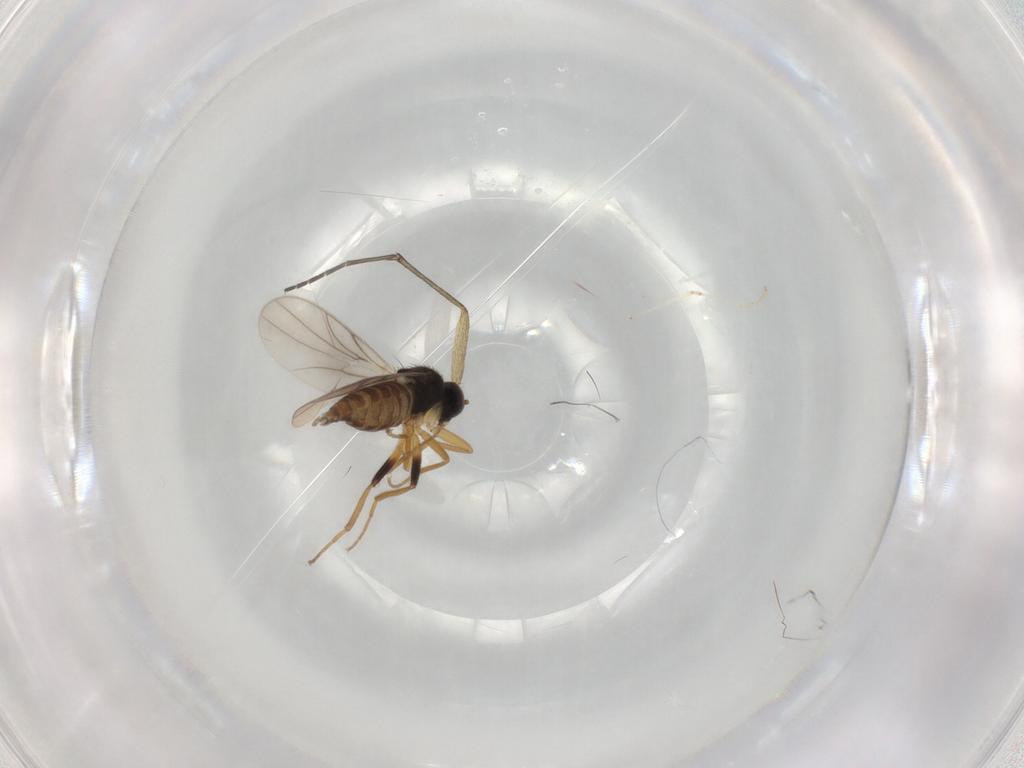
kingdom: Animalia
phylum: Arthropoda
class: Insecta
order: Diptera
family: Hybotidae
